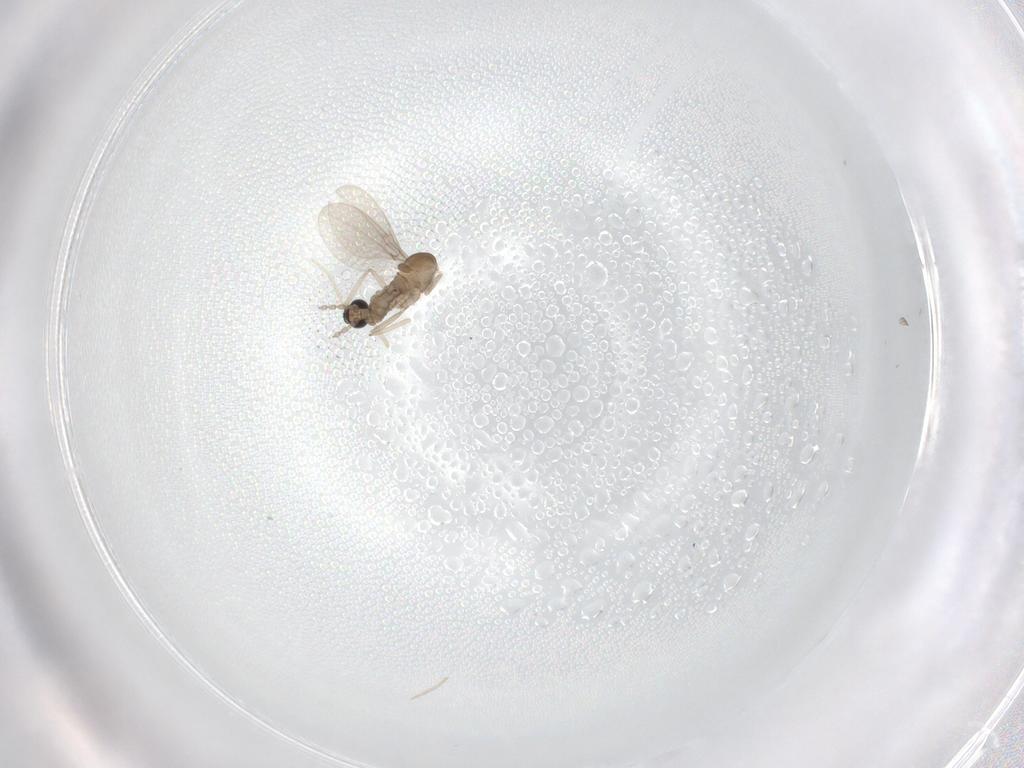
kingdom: Animalia
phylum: Arthropoda
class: Insecta
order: Diptera
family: Cecidomyiidae
